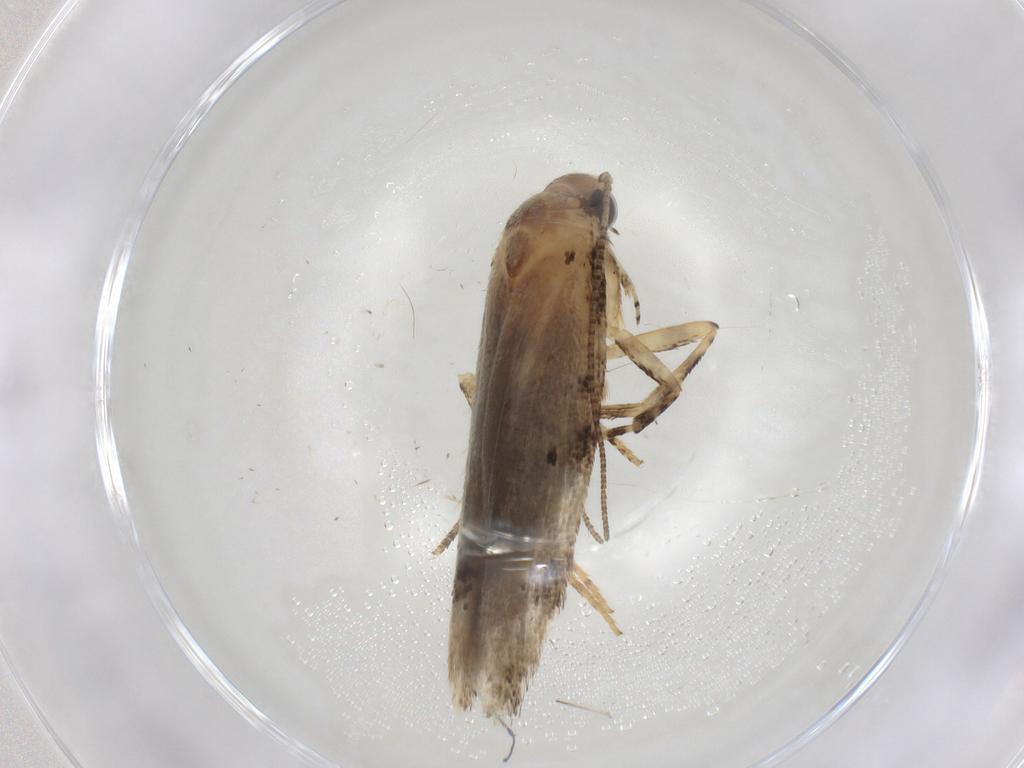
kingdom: Animalia
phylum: Arthropoda
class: Insecta
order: Lepidoptera
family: Depressariidae
